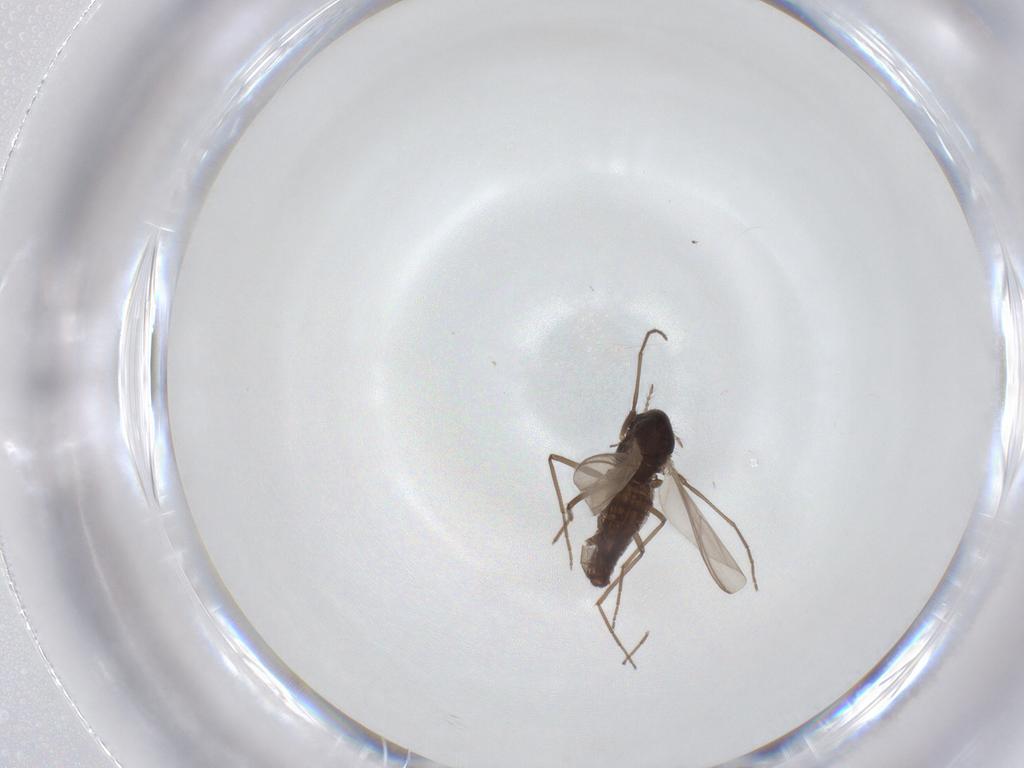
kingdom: Animalia
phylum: Arthropoda
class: Insecta
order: Diptera
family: Chironomidae
